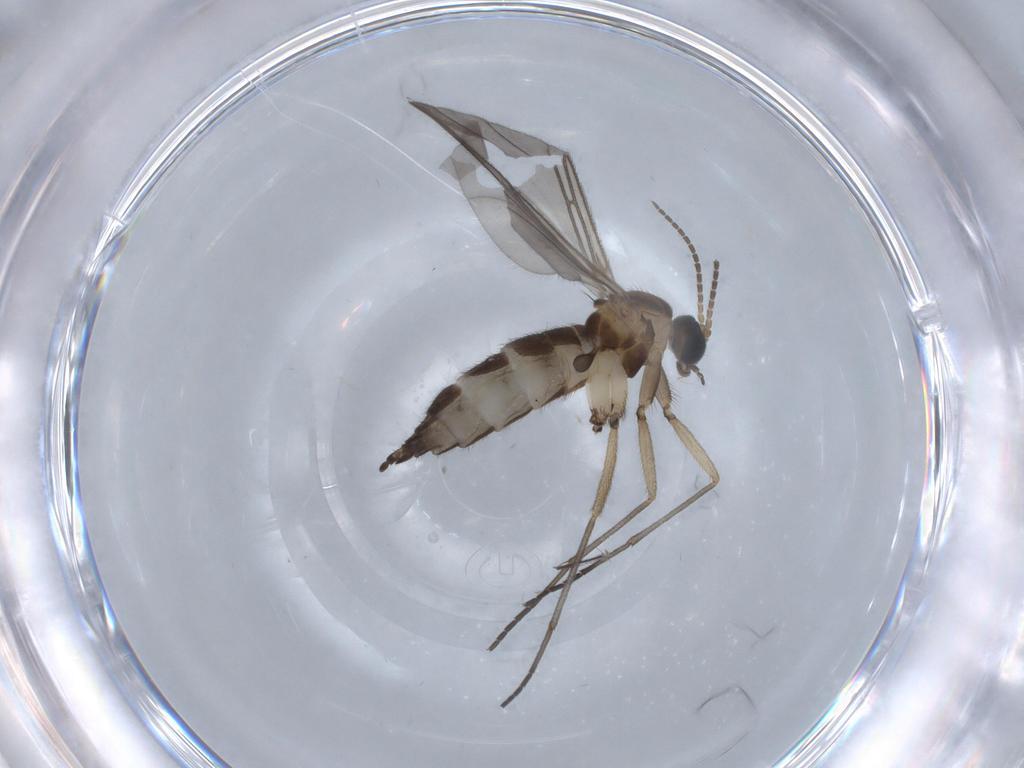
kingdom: Animalia
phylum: Arthropoda
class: Insecta
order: Diptera
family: Sciaridae
